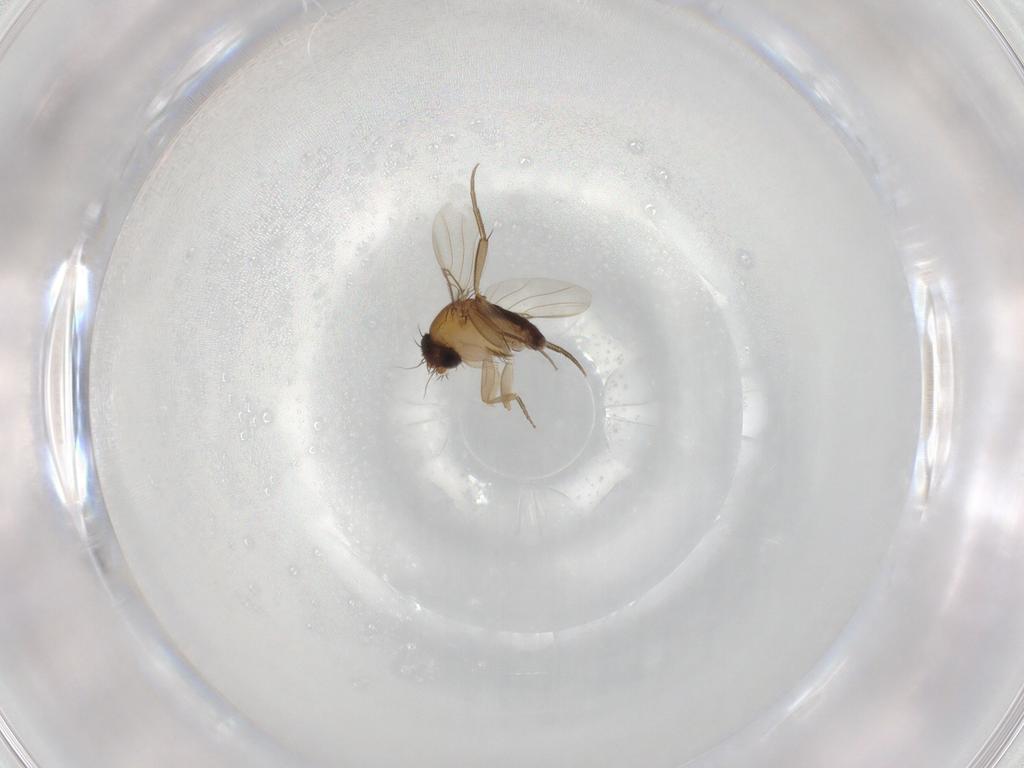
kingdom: Animalia
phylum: Arthropoda
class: Insecta
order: Diptera
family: Phoridae
